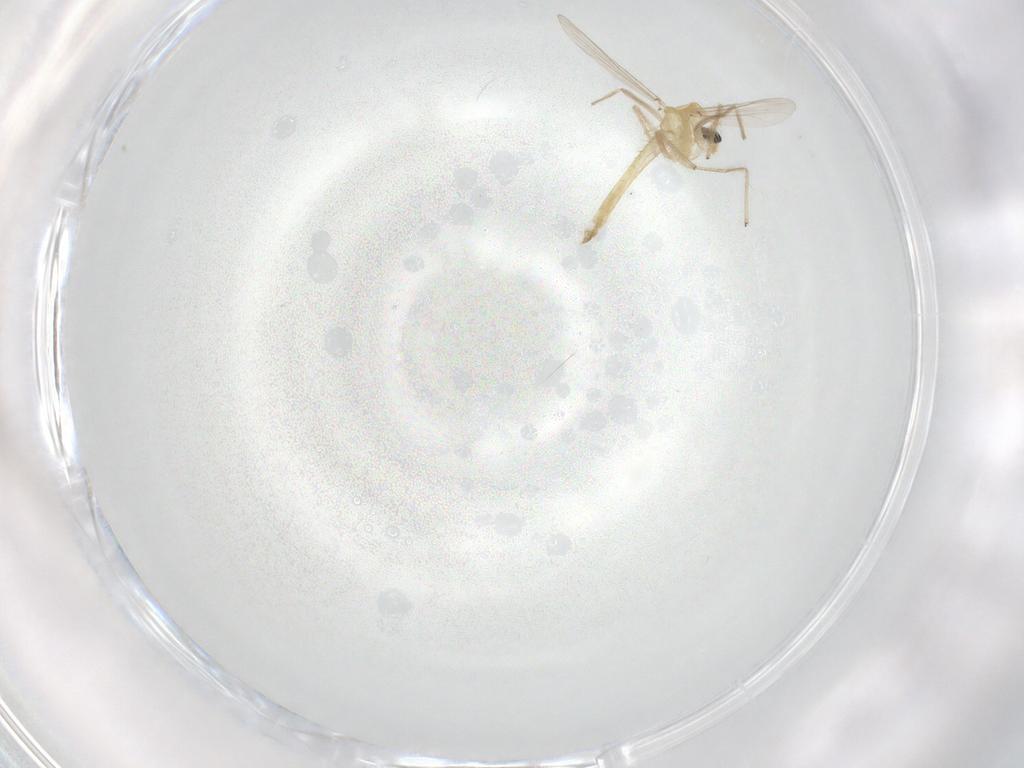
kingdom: Animalia
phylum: Arthropoda
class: Insecta
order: Diptera
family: Chironomidae
